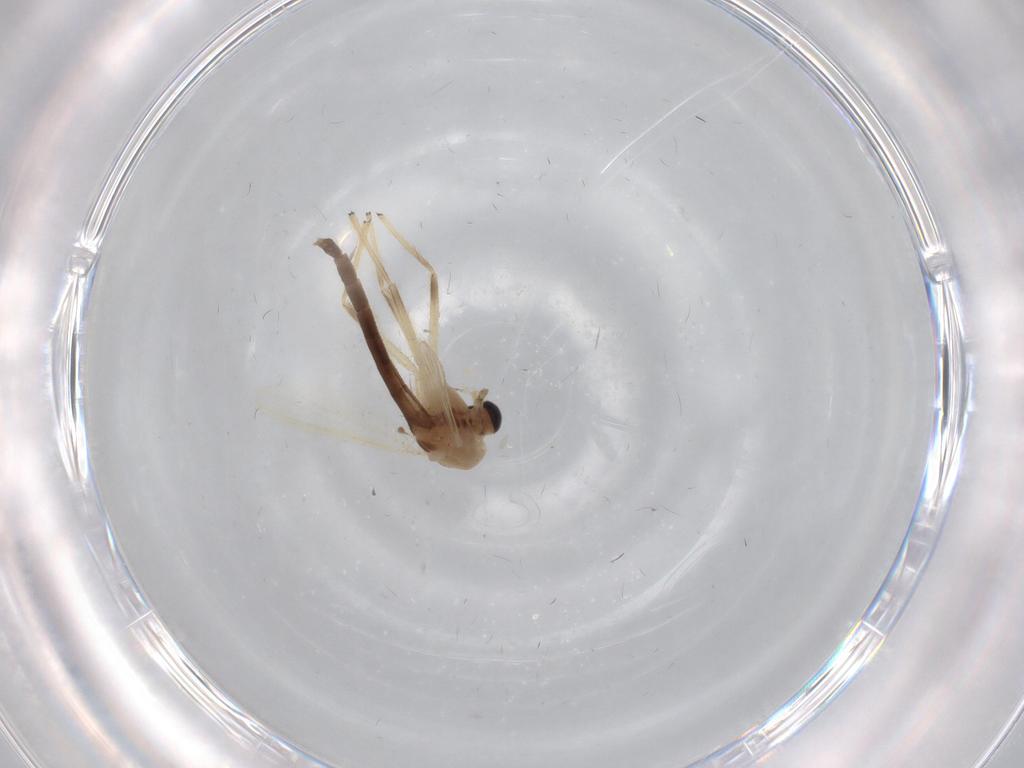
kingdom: Animalia
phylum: Arthropoda
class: Insecta
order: Diptera
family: Chironomidae
